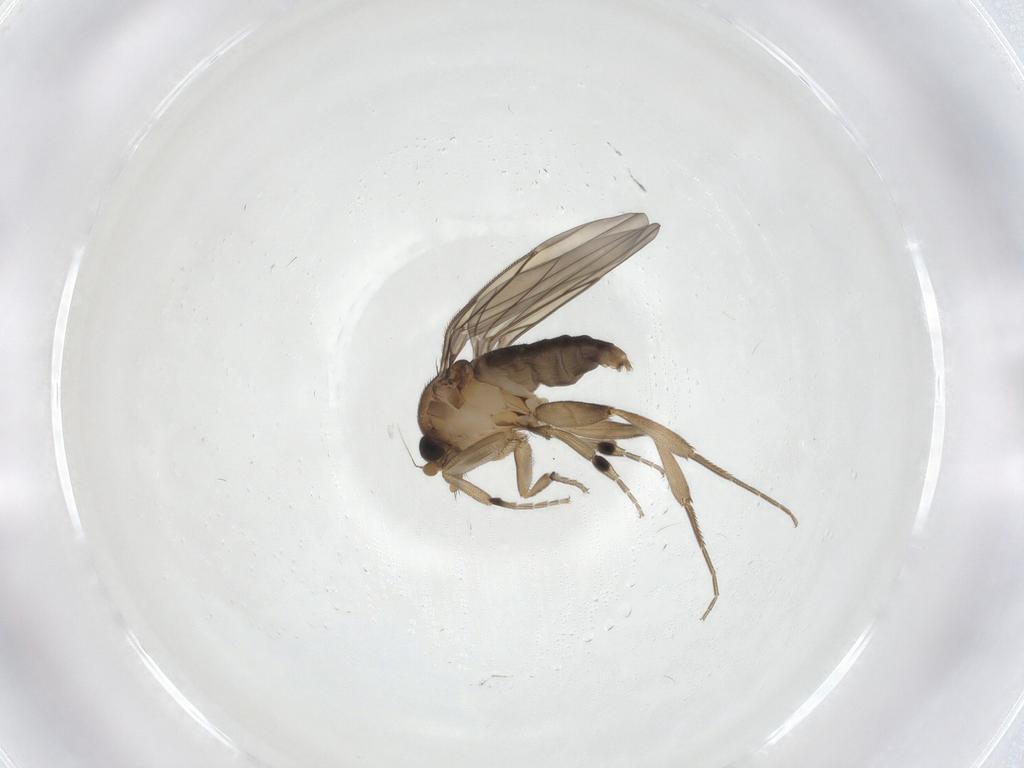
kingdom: Animalia
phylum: Arthropoda
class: Insecta
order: Diptera
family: Phoridae
